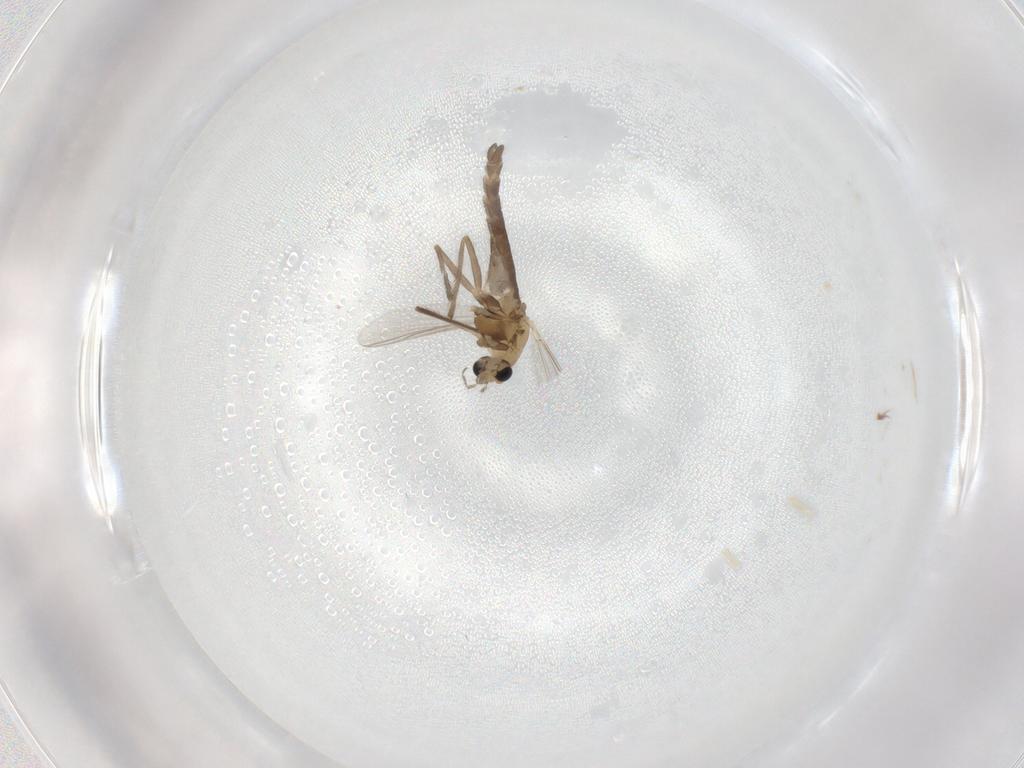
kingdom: Animalia
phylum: Arthropoda
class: Insecta
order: Diptera
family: Chironomidae
